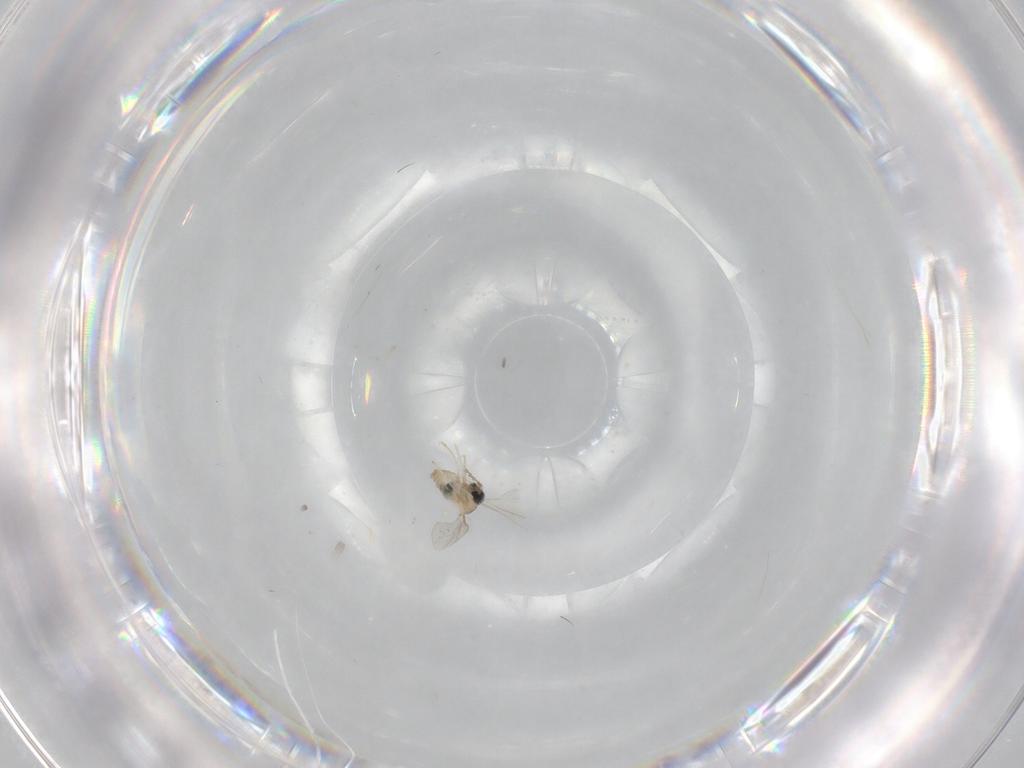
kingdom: Animalia
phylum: Arthropoda
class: Insecta
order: Diptera
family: Cecidomyiidae
